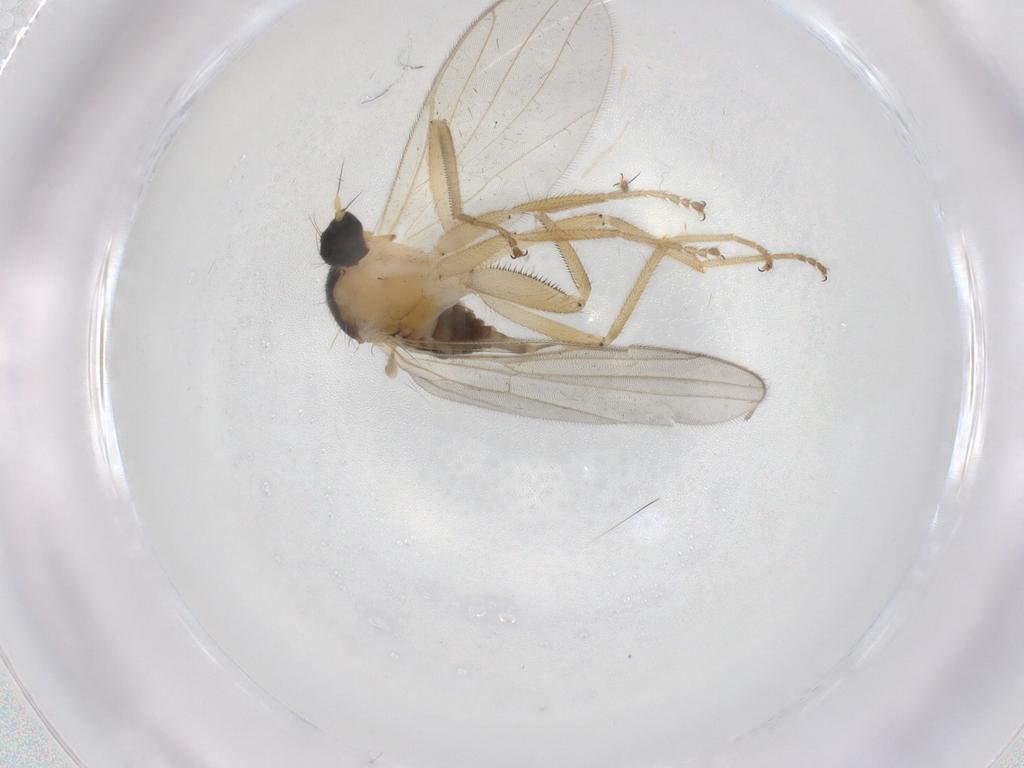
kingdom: Animalia
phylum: Arthropoda
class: Insecta
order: Diptera
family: Hybotidae
